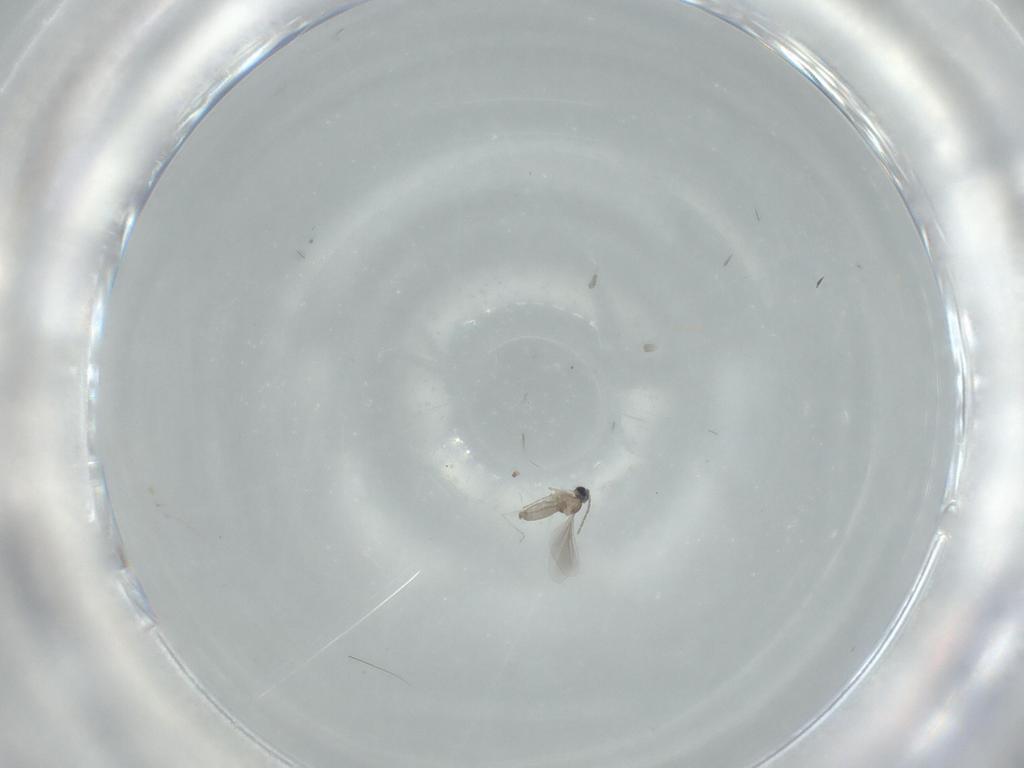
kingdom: Animalia
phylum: Arthropoda
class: Insecta
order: Diptera
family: Cecidomyiidae
